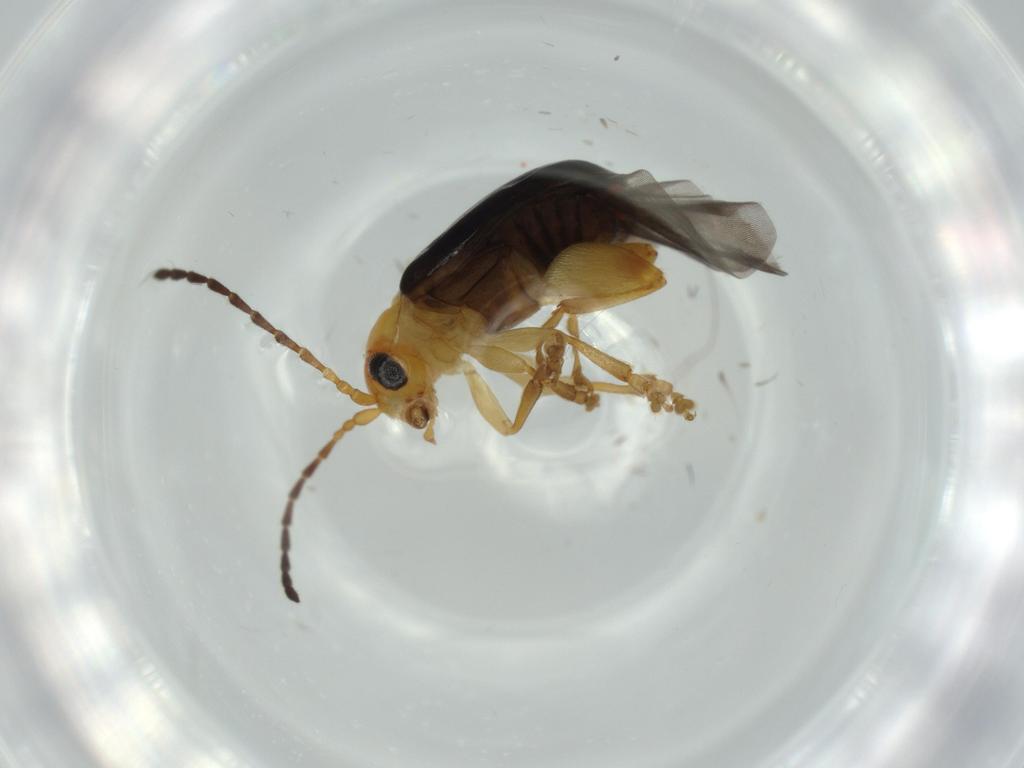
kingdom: Animalia
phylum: Arthropoda
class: Insecta
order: Coleoptera
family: Chrysomelidae
